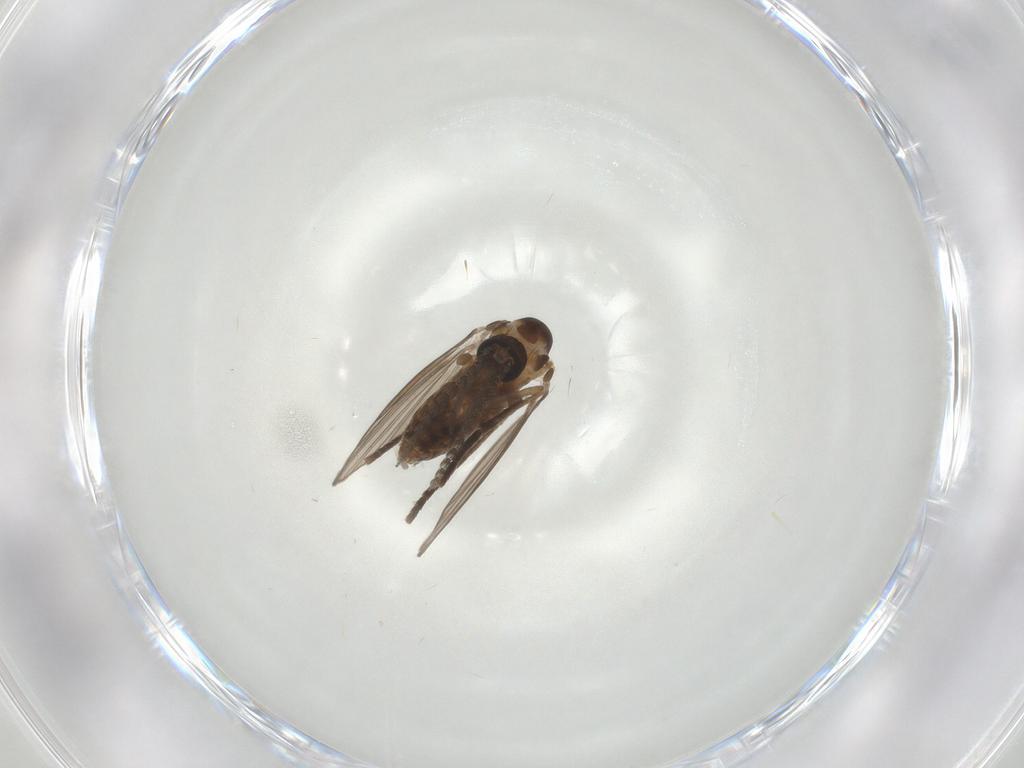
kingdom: Animalia
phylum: Arthropoda
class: Insecta
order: Diptera
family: Psychodidae
